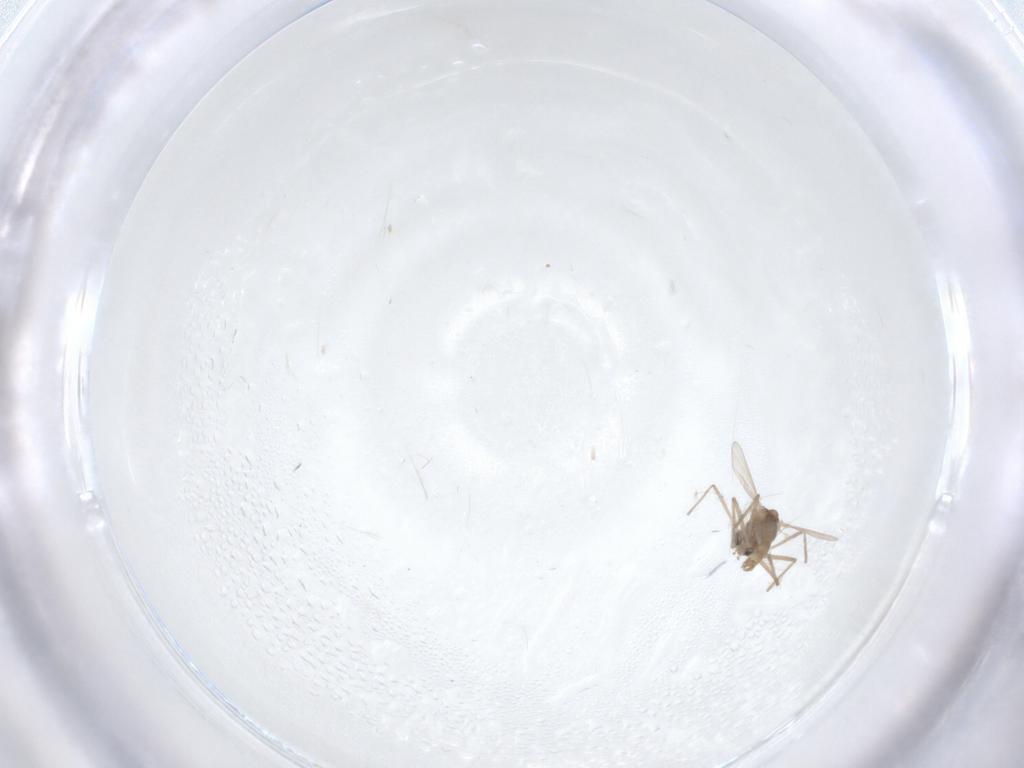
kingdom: Animalia
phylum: Arthropoda
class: Insecta
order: Diptera
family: Chironomidae
